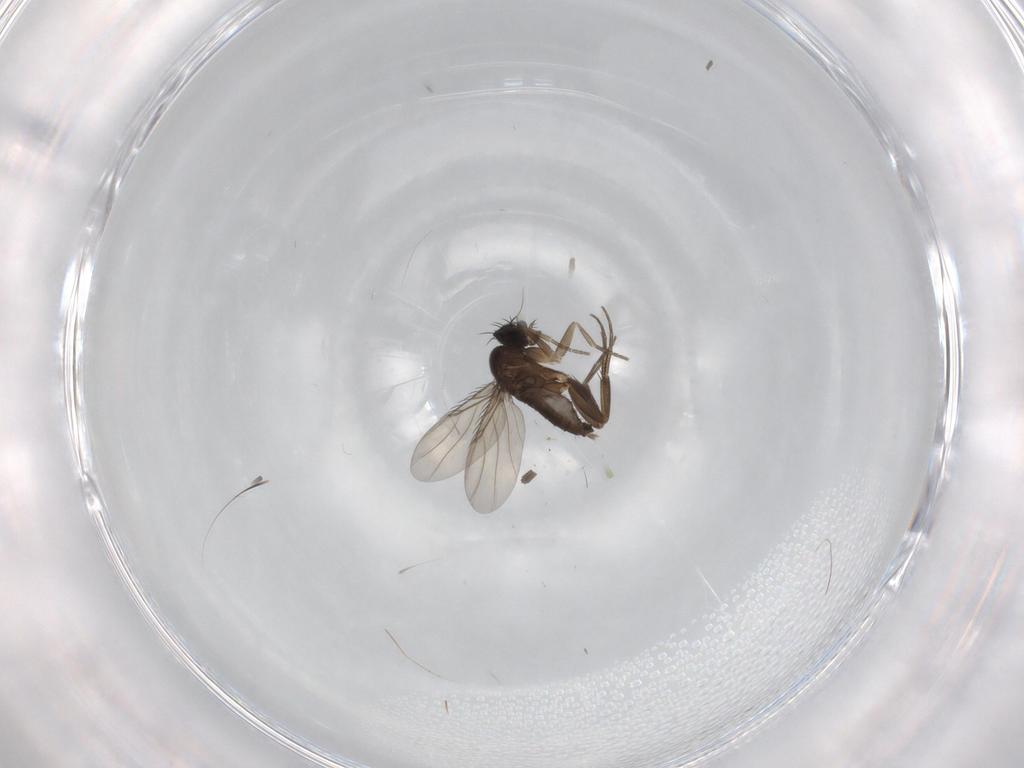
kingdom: Animalia
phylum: Arthropoda
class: Insecta
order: Diptera
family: Phoridae
